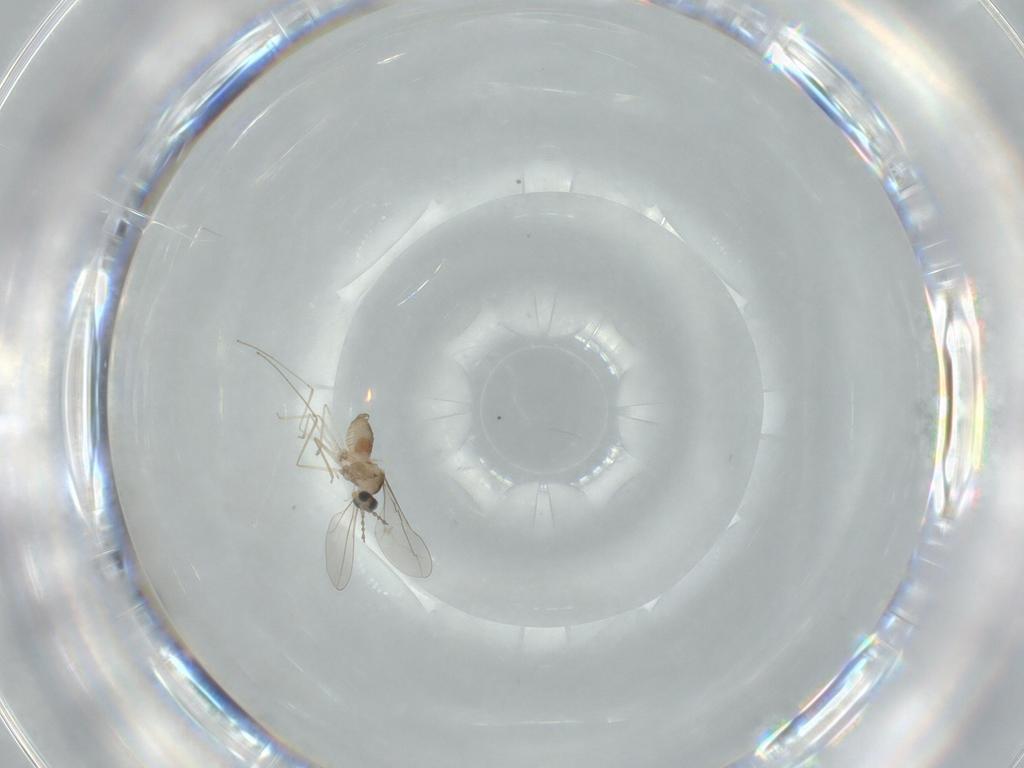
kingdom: Animalia
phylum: Arthropoda
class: Insecta
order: Diptera
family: Cecidomyiidae
